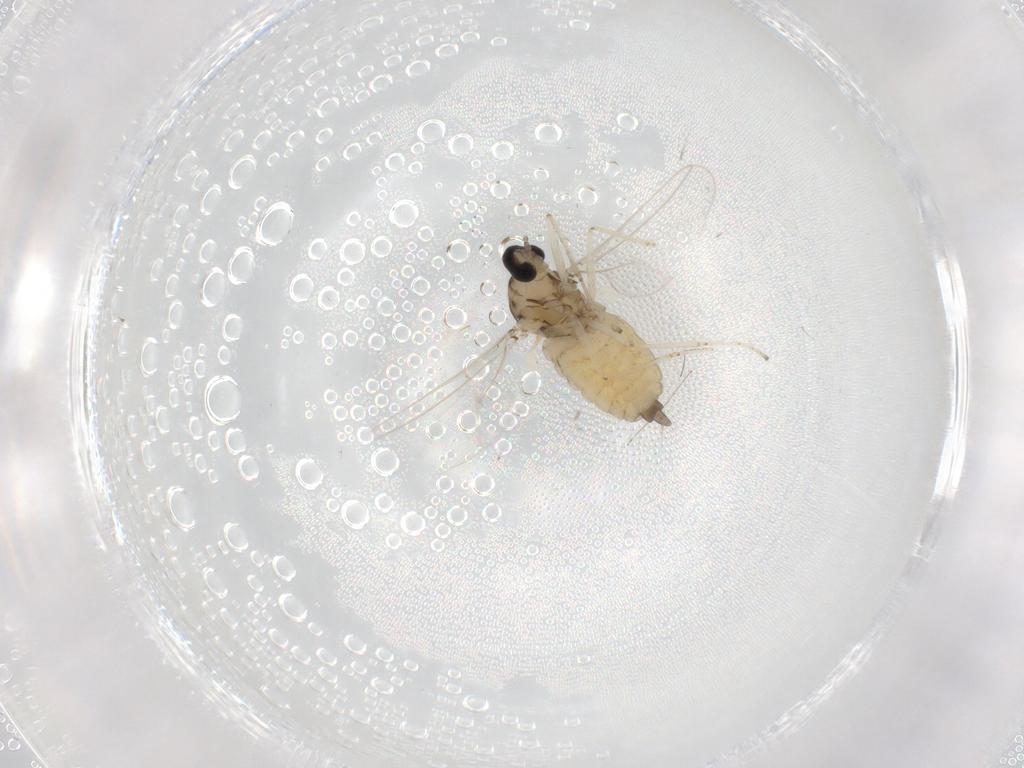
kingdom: Animalia
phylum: Arthropoda
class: Insecta
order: Diptera
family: Cecidomyiidae
